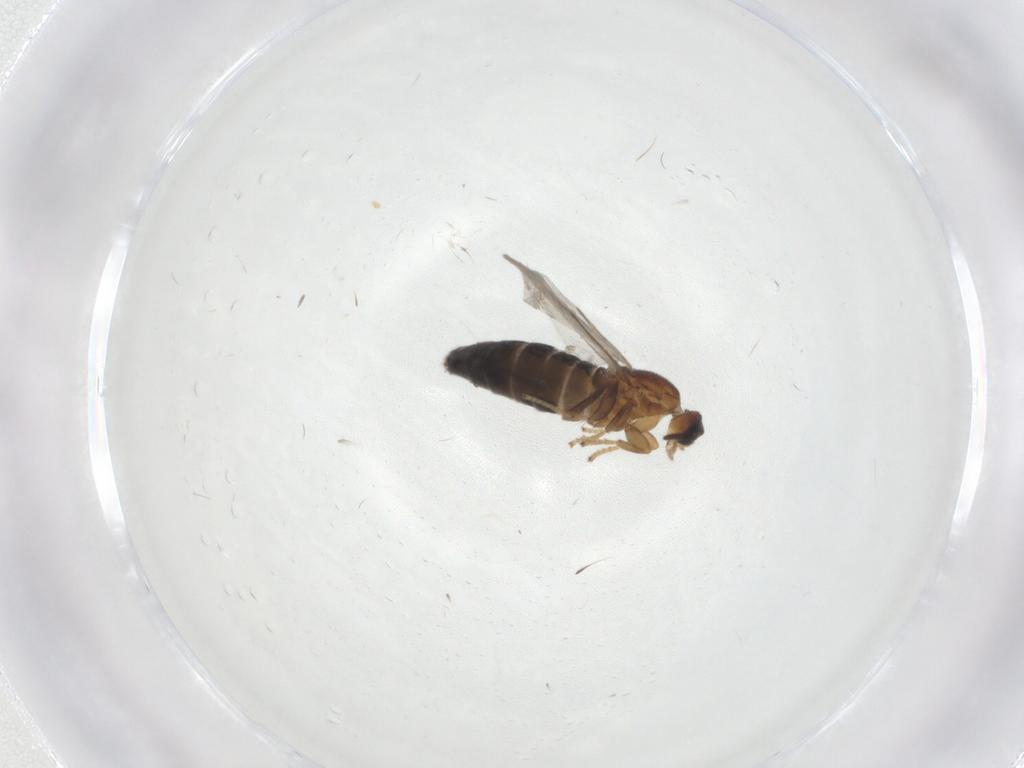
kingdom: Animalia
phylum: Arthropoda
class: Insecta
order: Diptera
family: Scatopsidae
